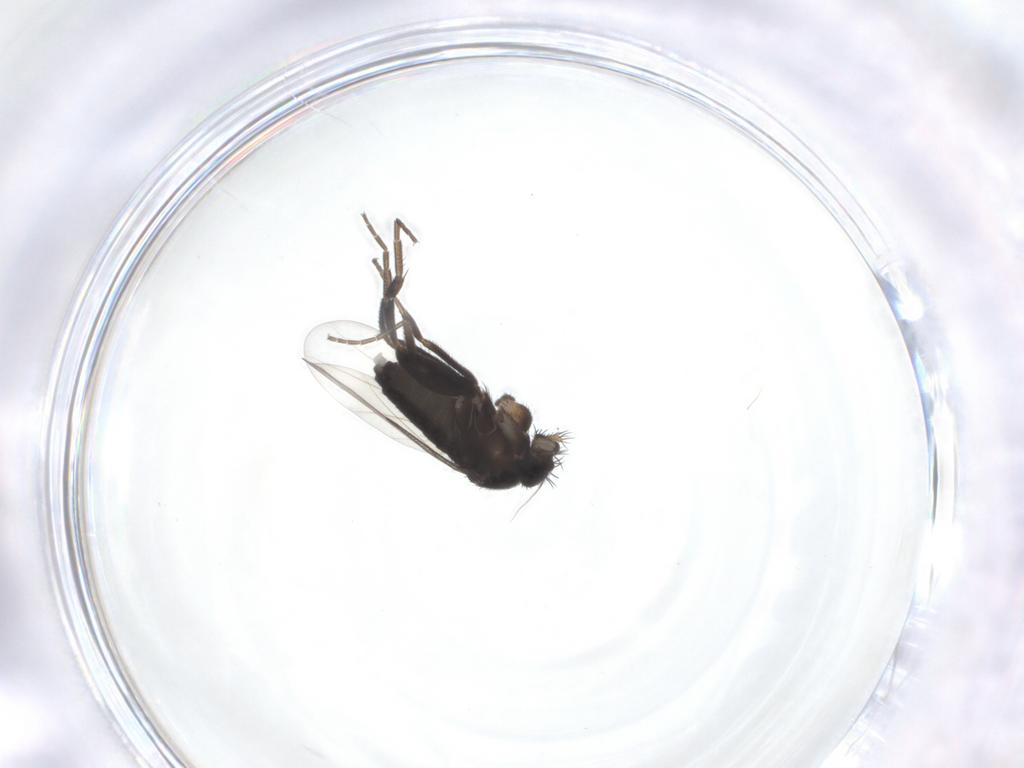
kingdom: Animalia
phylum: Arthropoda
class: Insecta
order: Diptera
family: Phoridae
